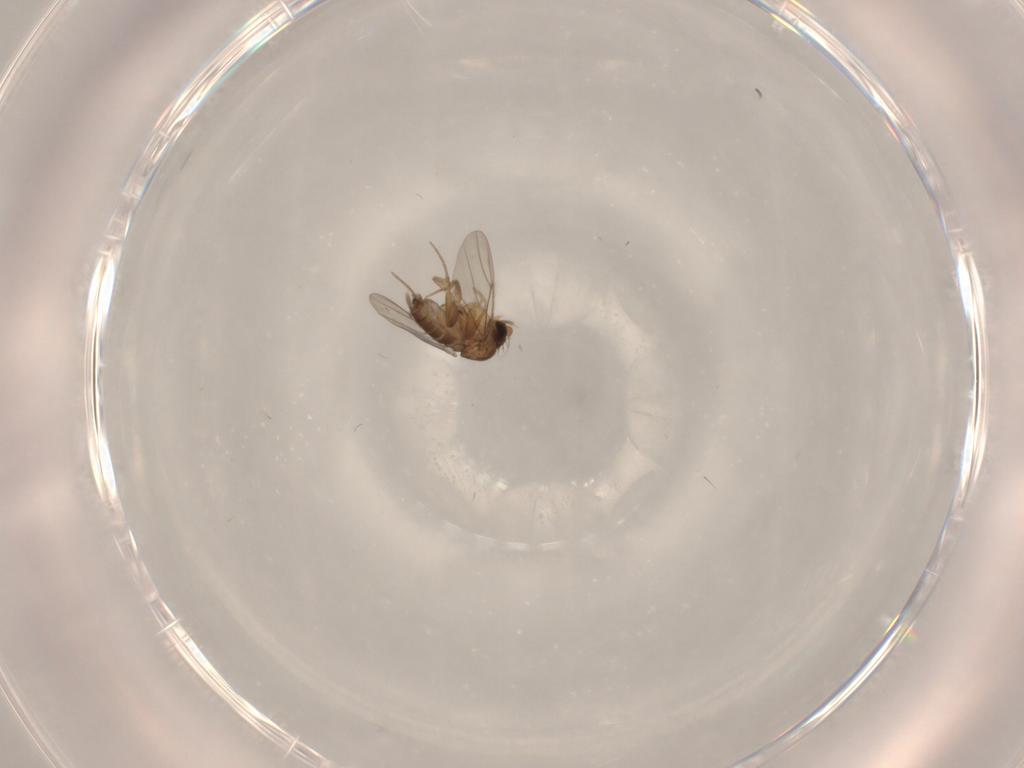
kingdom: Animalia
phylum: Arthropoda
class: Insecta
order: Diptera
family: Phoridae
